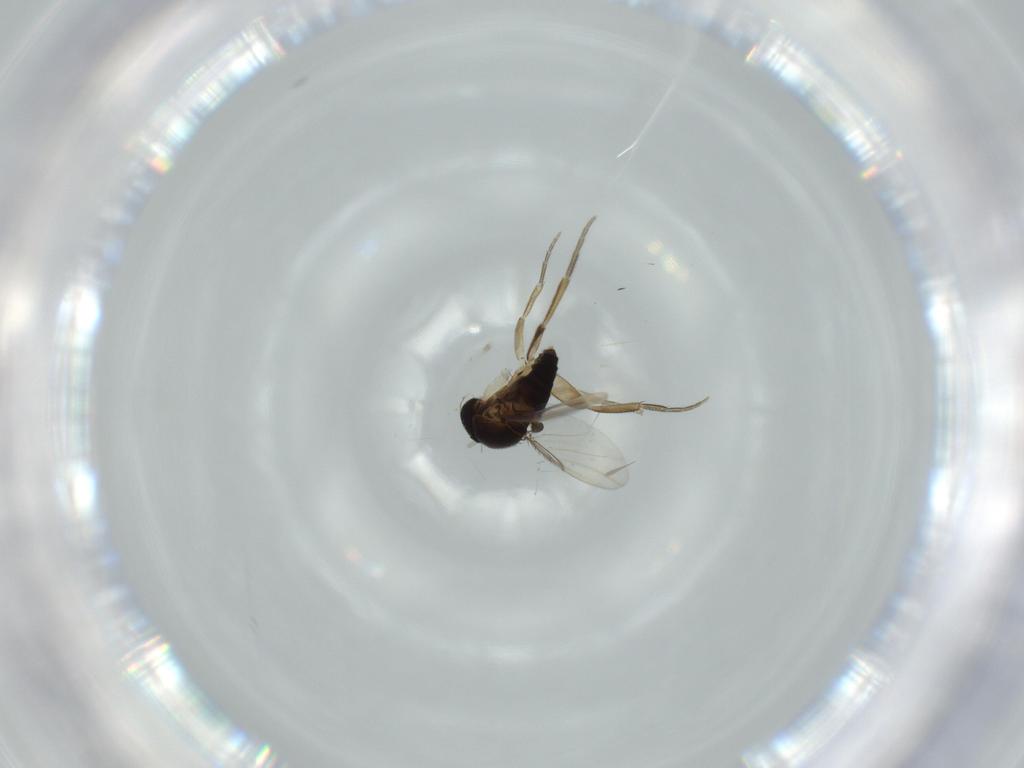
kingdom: Animalia
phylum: Arthropoda
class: Insecta
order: Diptera
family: Phoridae
